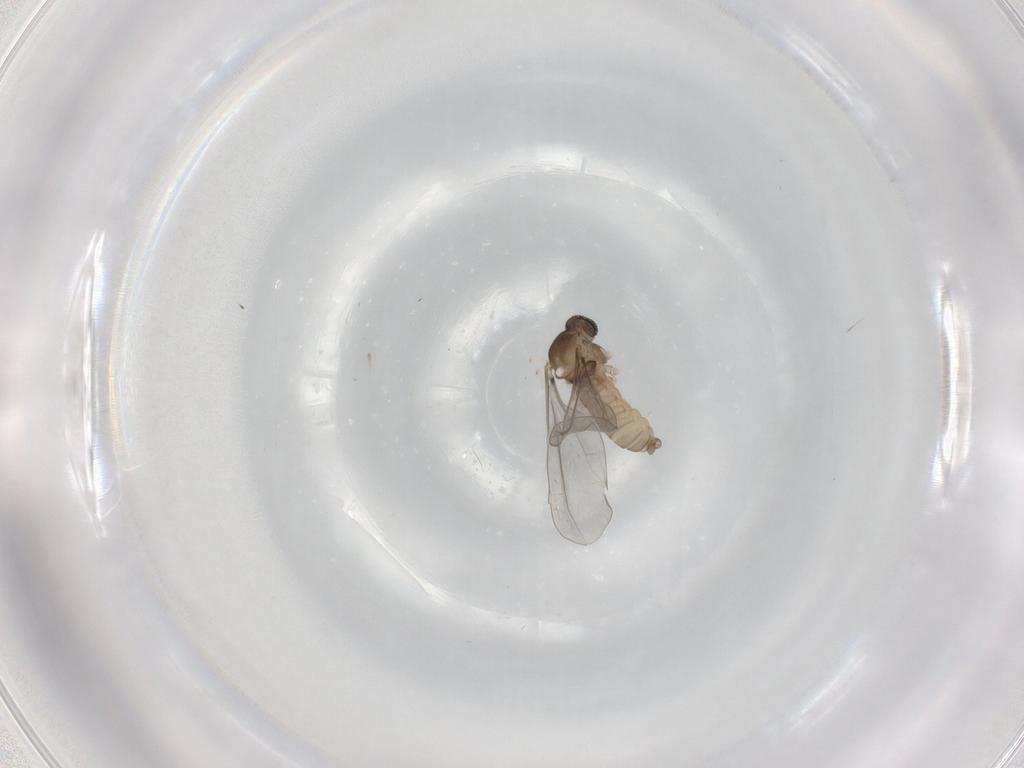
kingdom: Animalia
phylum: Arthropoda
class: Insecta
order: Diptera
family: Cecidomyiidae
